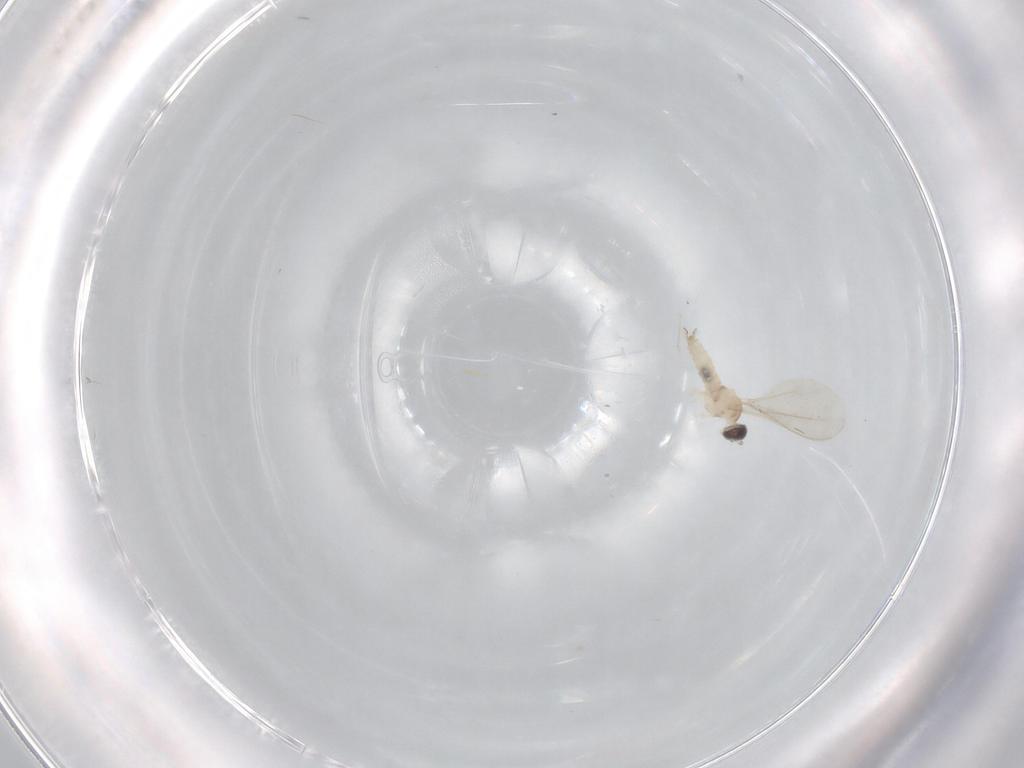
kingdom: Animalia
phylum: Arthropoda
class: Insecta
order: Diptera
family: Cecidomyiidae
